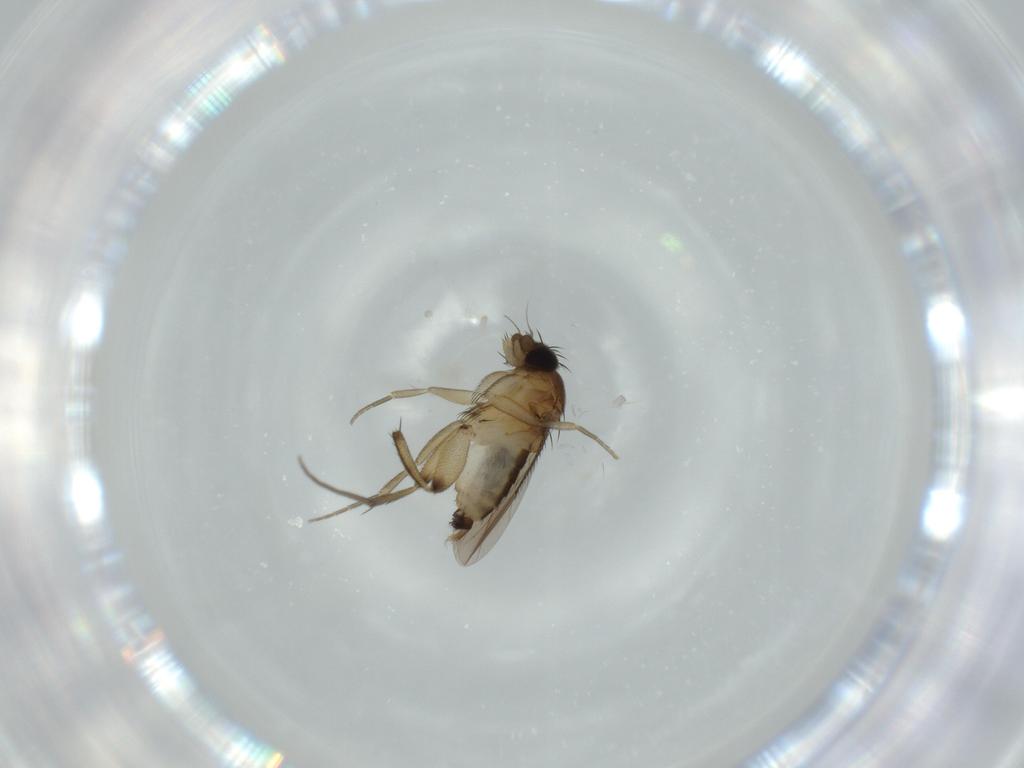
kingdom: Animalia
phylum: Arthropoda
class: Insecta
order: Diptera
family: Phoridae
